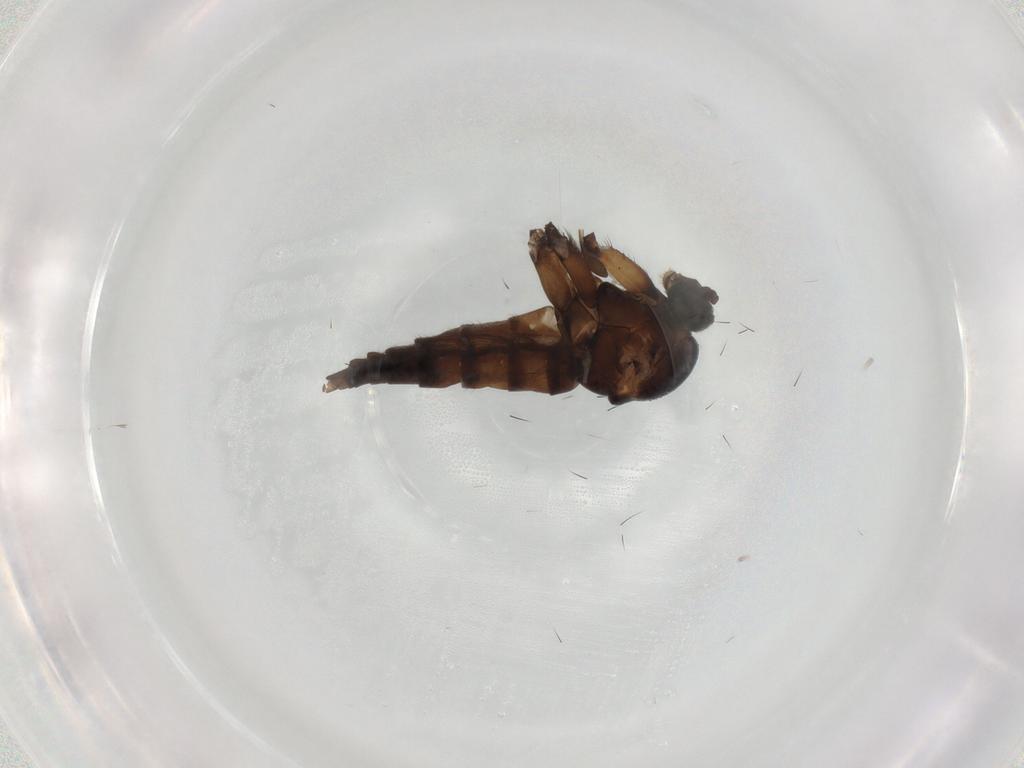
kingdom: Animalia
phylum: Arthropoda
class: Insecta
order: Diptera
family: Sciaridae
